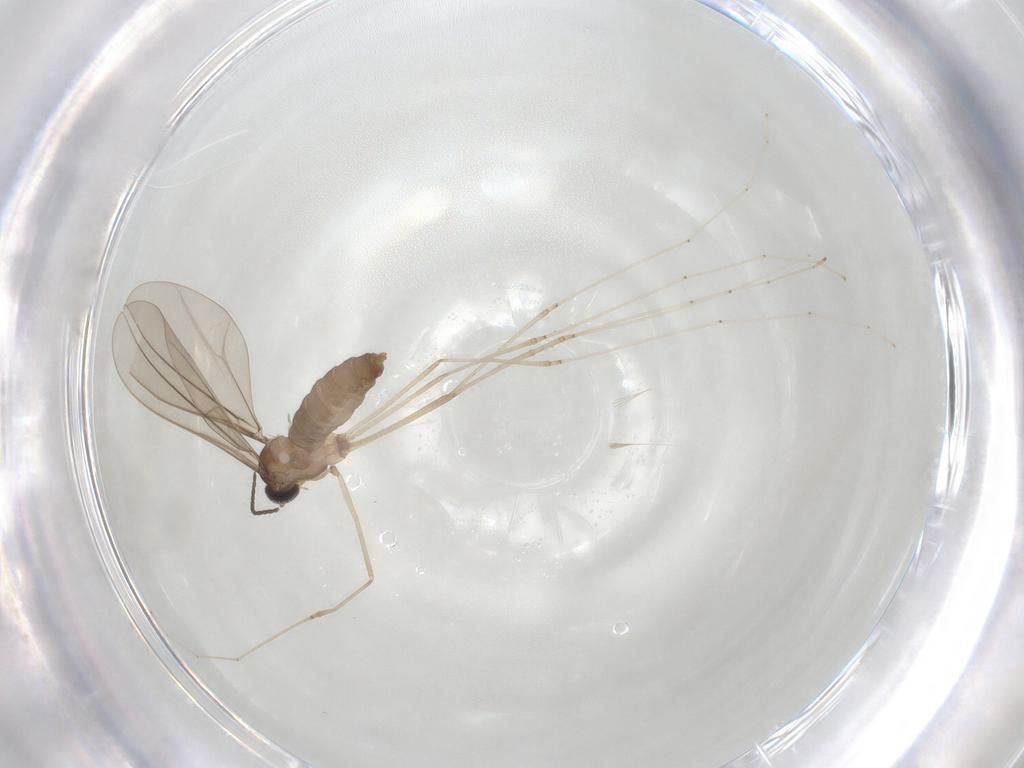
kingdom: Animalia
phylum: Arthropoda
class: Insecta
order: Diptera
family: Cecidomyiidae
